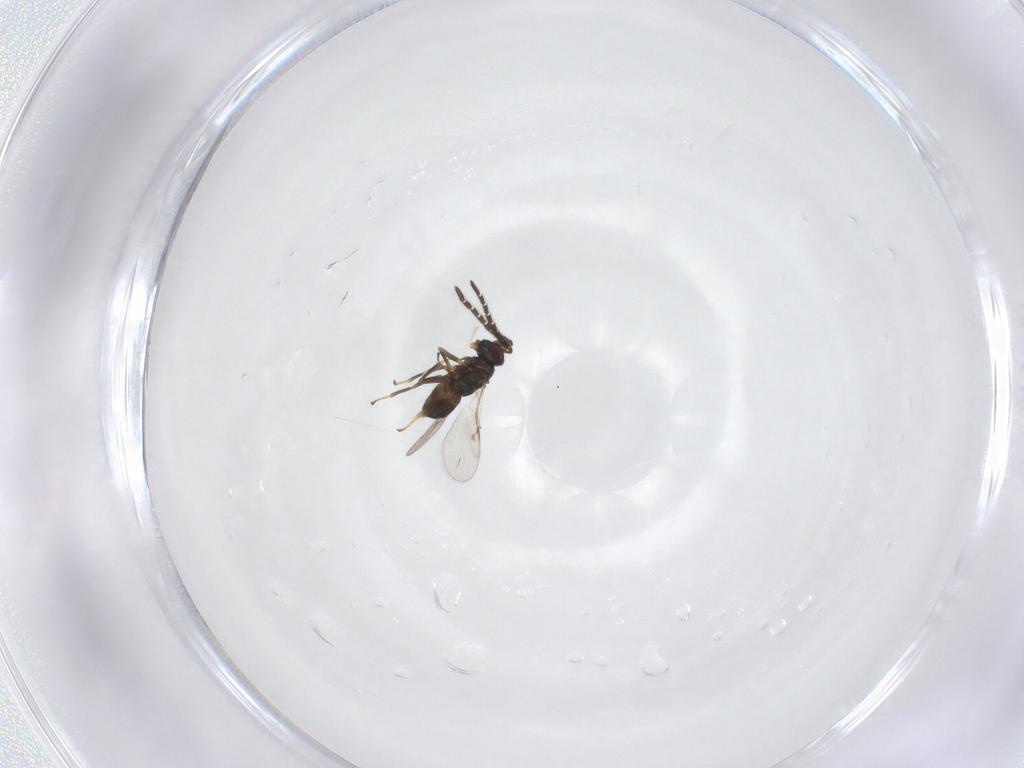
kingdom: Animalia
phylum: Arthropoda
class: Insecta
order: Hymenoptera
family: Encyrtidae
